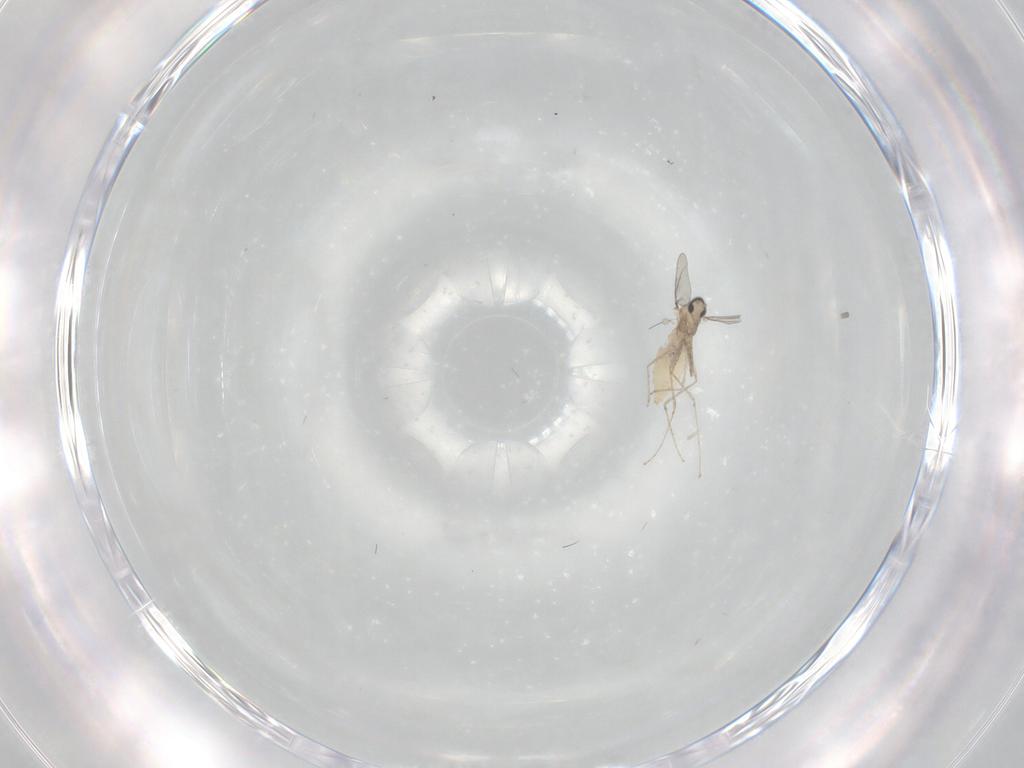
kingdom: Animalia
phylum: Arthropoda
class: Insecta
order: Diptera
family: Cecidomyiidae
